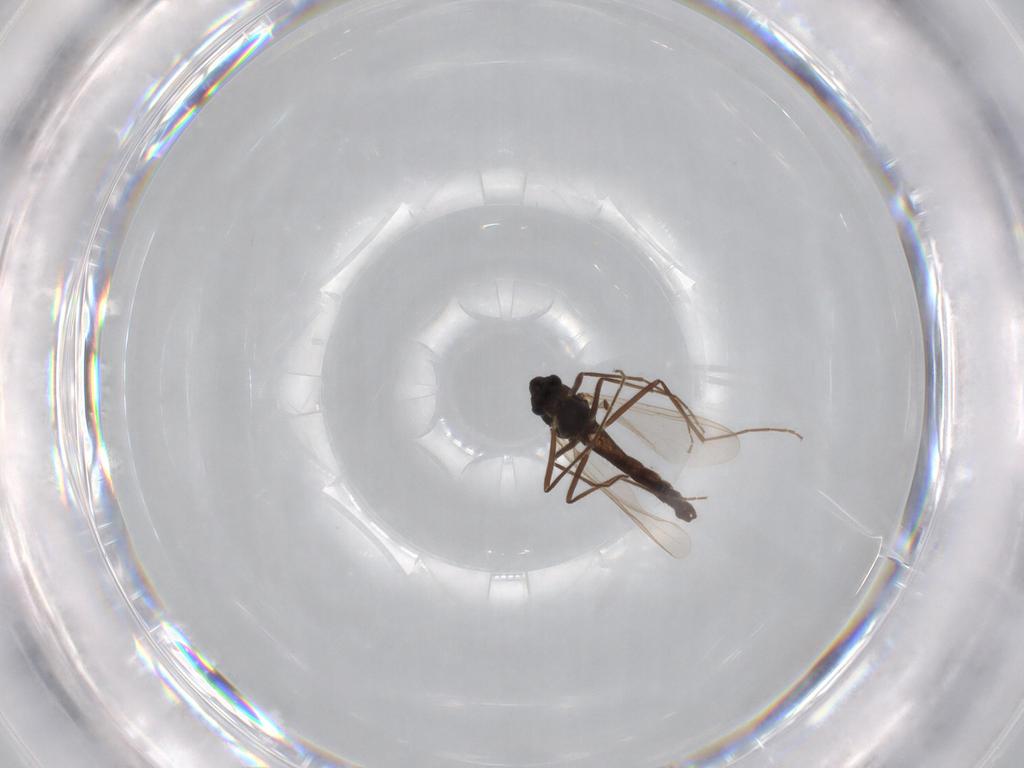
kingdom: Animalia
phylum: Arthropoda
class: Insecta
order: Diptera
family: Chironomidae
